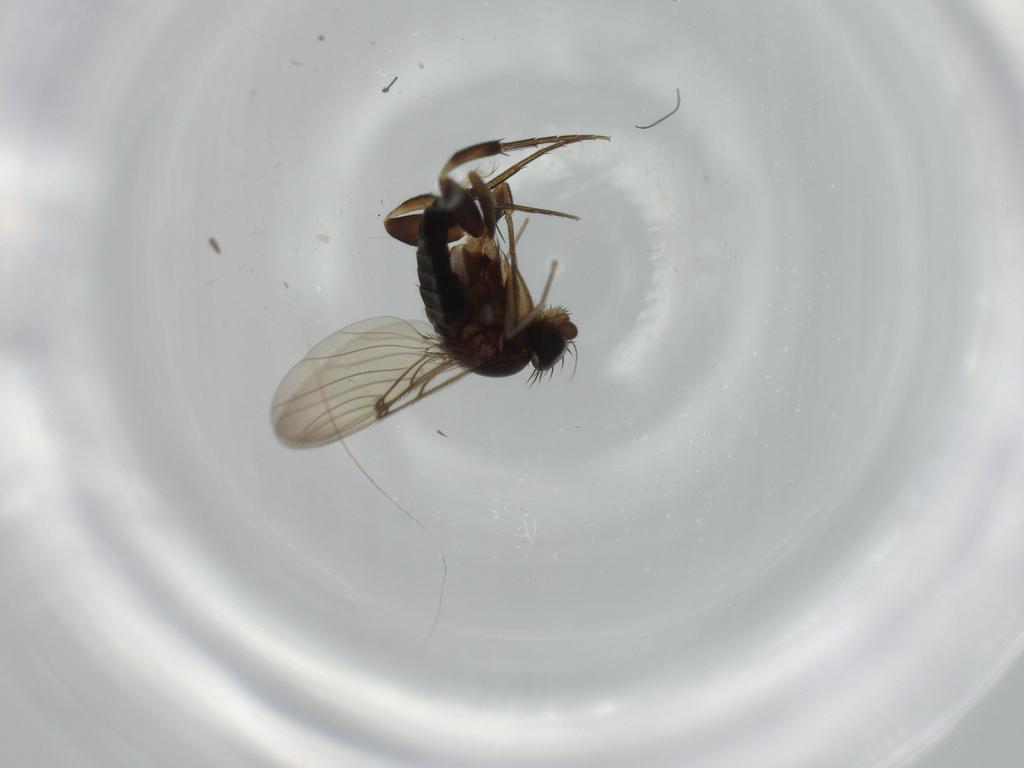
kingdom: Animalia
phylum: Arthropoda
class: Insecta
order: Diptera
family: Phoridae
